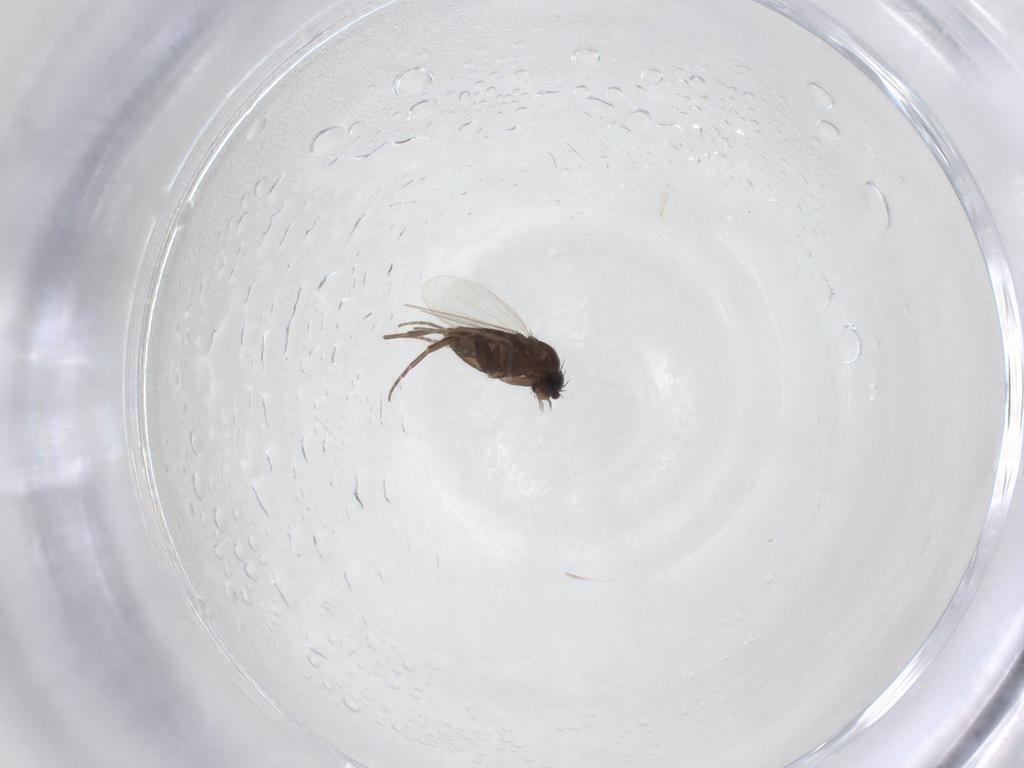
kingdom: Animalia
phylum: Arthropoda
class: Insecta
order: Diptera
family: Phoridae
